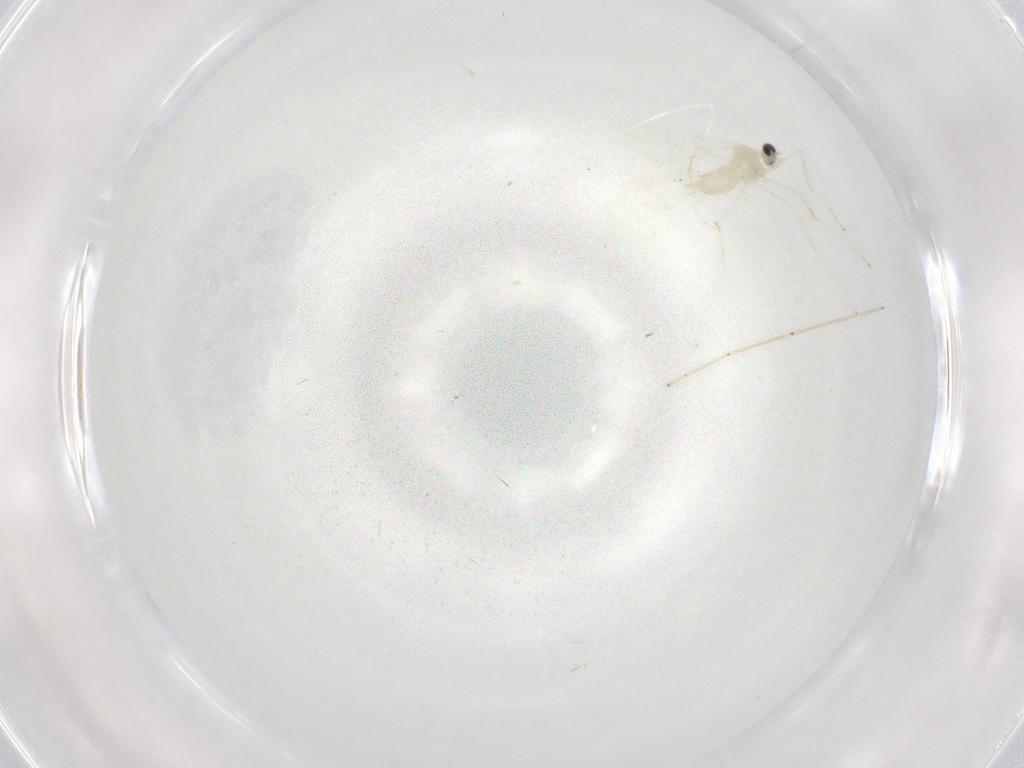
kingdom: Animalia
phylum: Arthropoda
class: Insecta
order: Diptera
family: Cecidomyiidae
